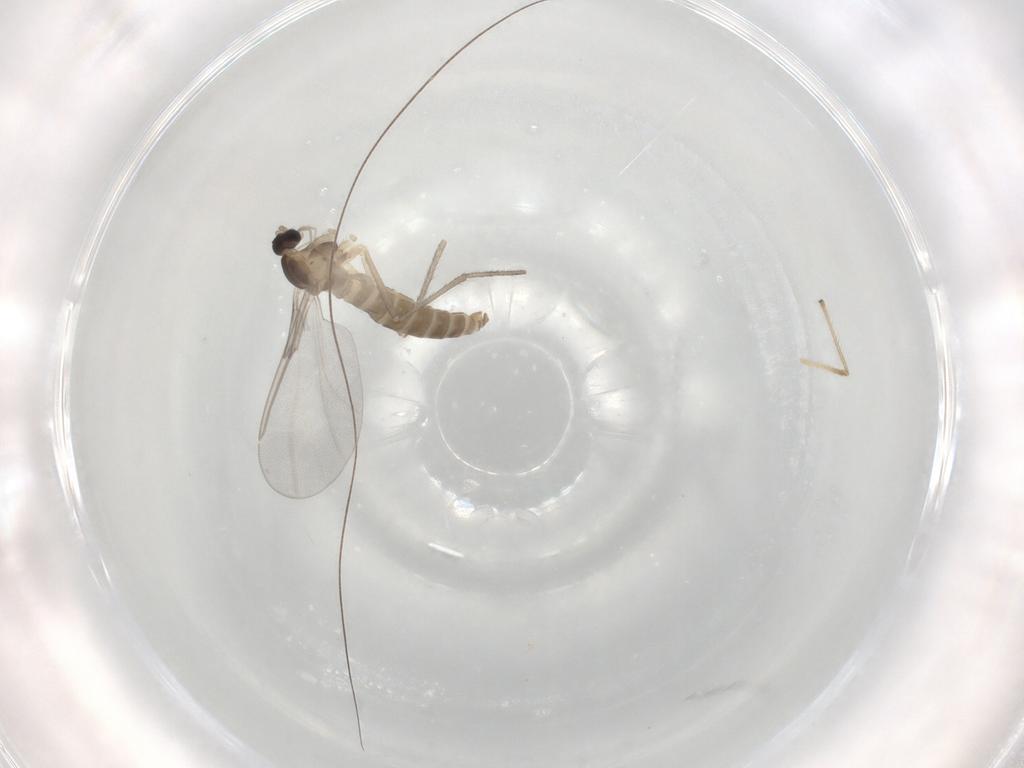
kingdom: Animalia
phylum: Arthropoda
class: Insecta
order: Diptera
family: Cecidomyiidae
